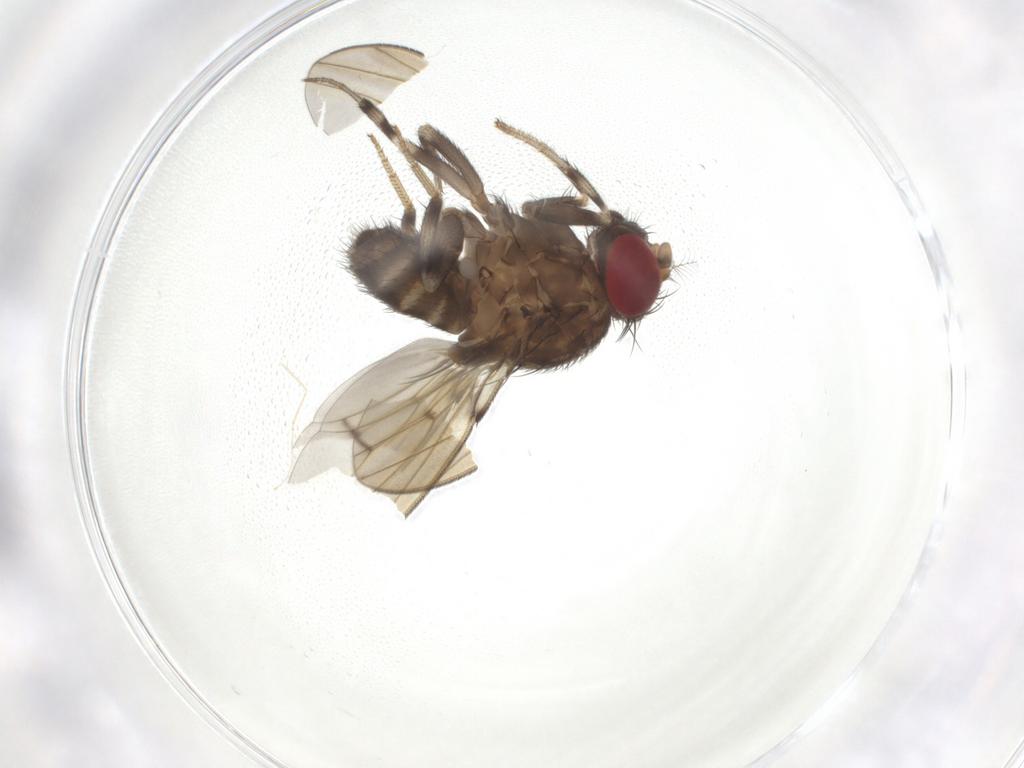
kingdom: Animalia
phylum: Arthropoda
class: Insecta
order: Diptera
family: Drosophilidae
